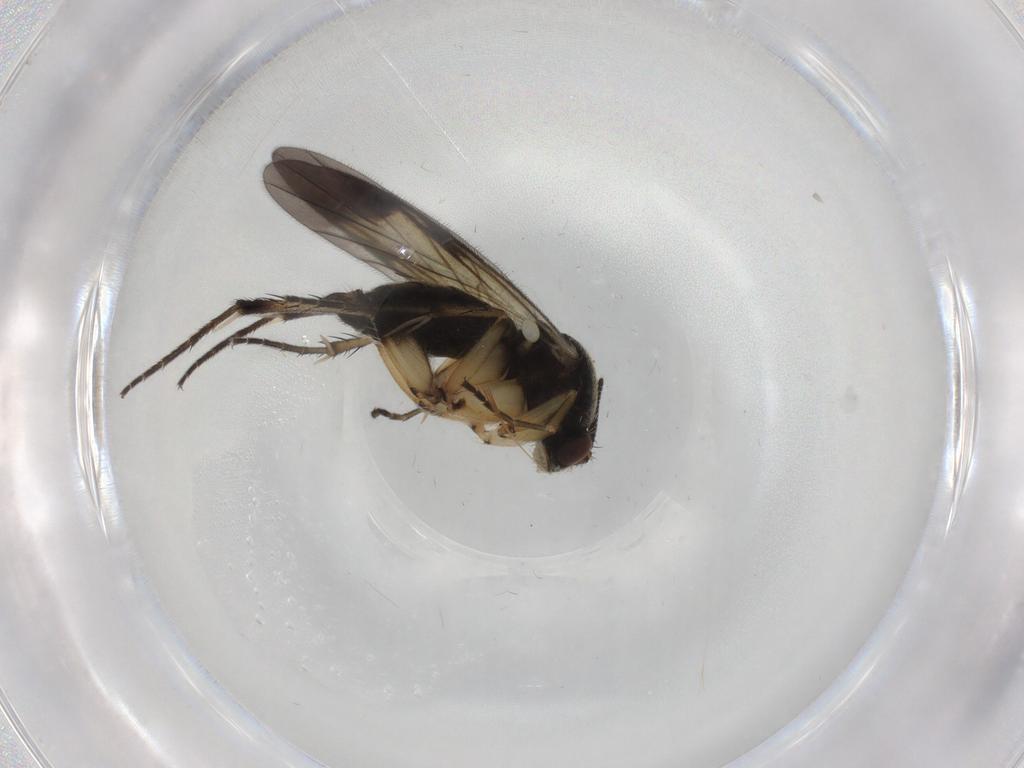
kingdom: Animalia
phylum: Arthropoda
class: Insecta
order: Diptera
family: Mycetophilidae
